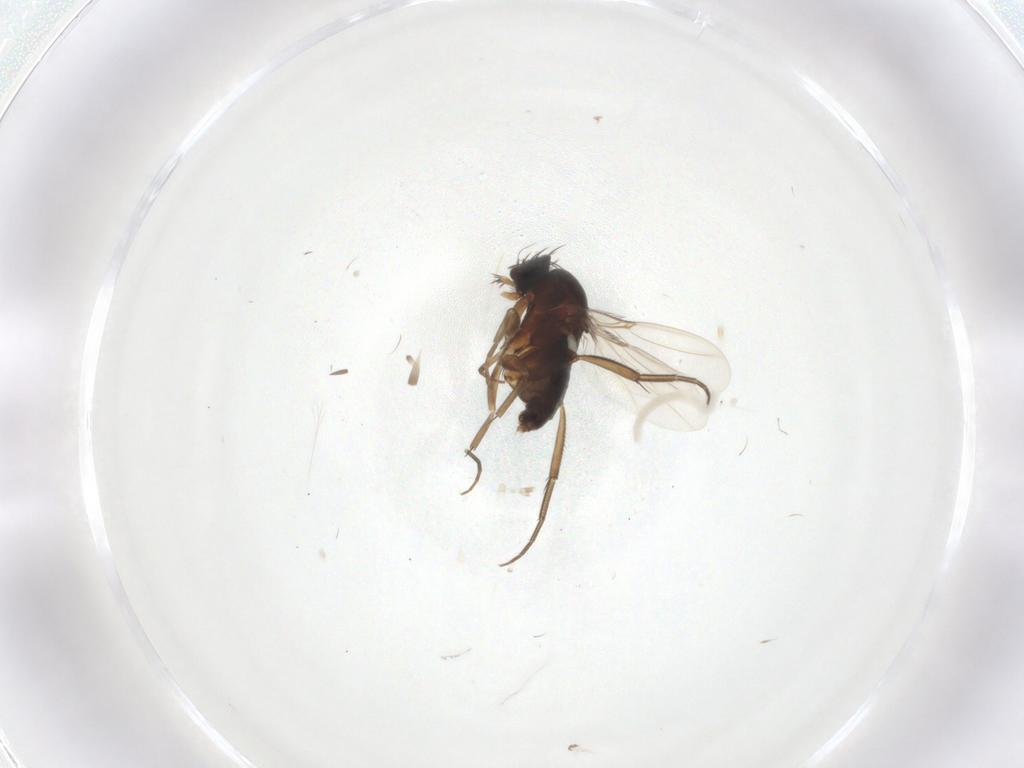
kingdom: Animalia
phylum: Arthropoda
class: Insecta
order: Diptera
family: Phoridae
